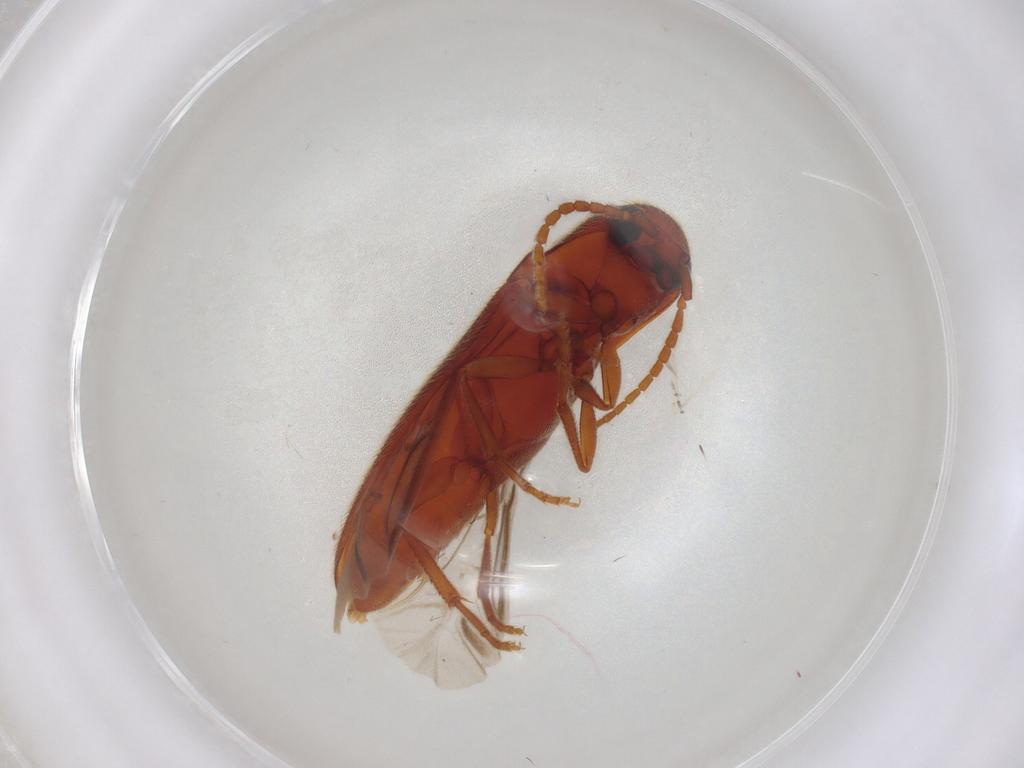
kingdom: Animalia
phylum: Arthropoda
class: Insecta
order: Coleoptera
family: Eucnemidae
